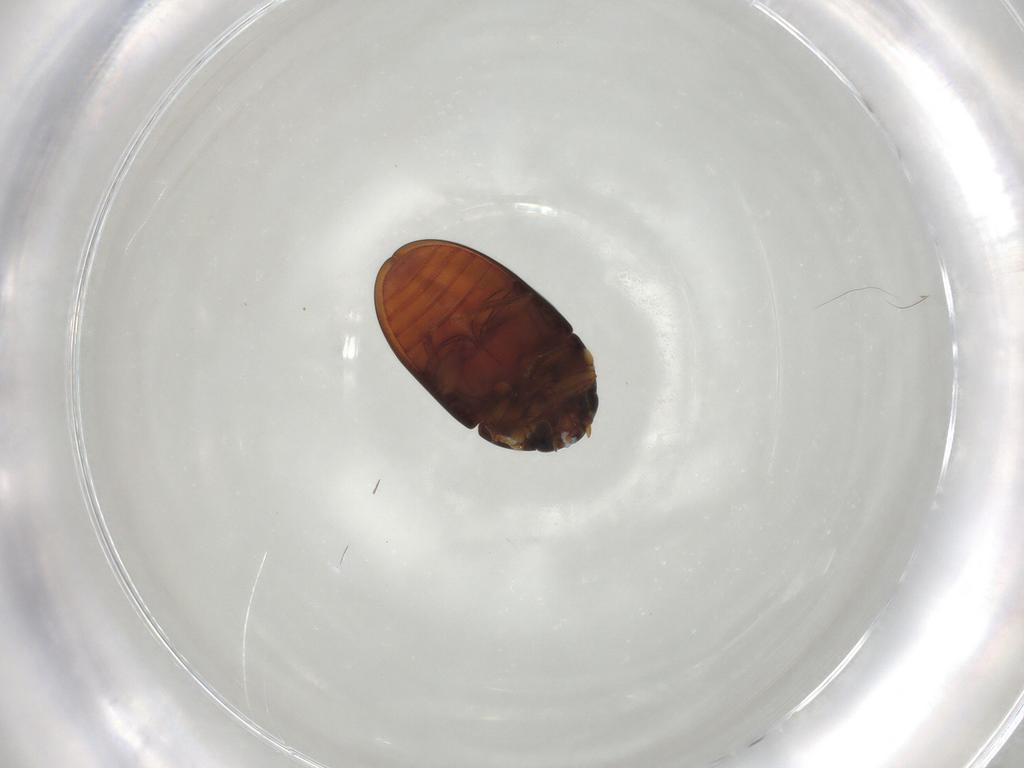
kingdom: Animalia
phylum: Arthropoda
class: Insecta
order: Coleoptera
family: Phalacridae
